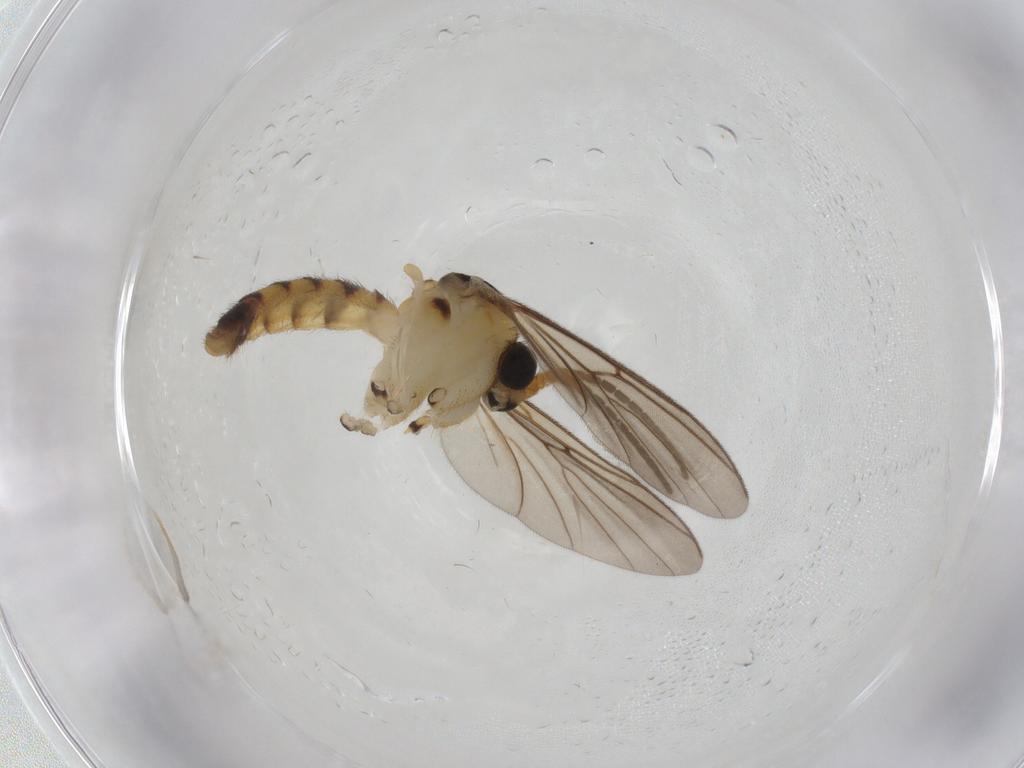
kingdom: Animalia
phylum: Arthropoda
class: Insecta
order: Diptera
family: Mycetophilidae
